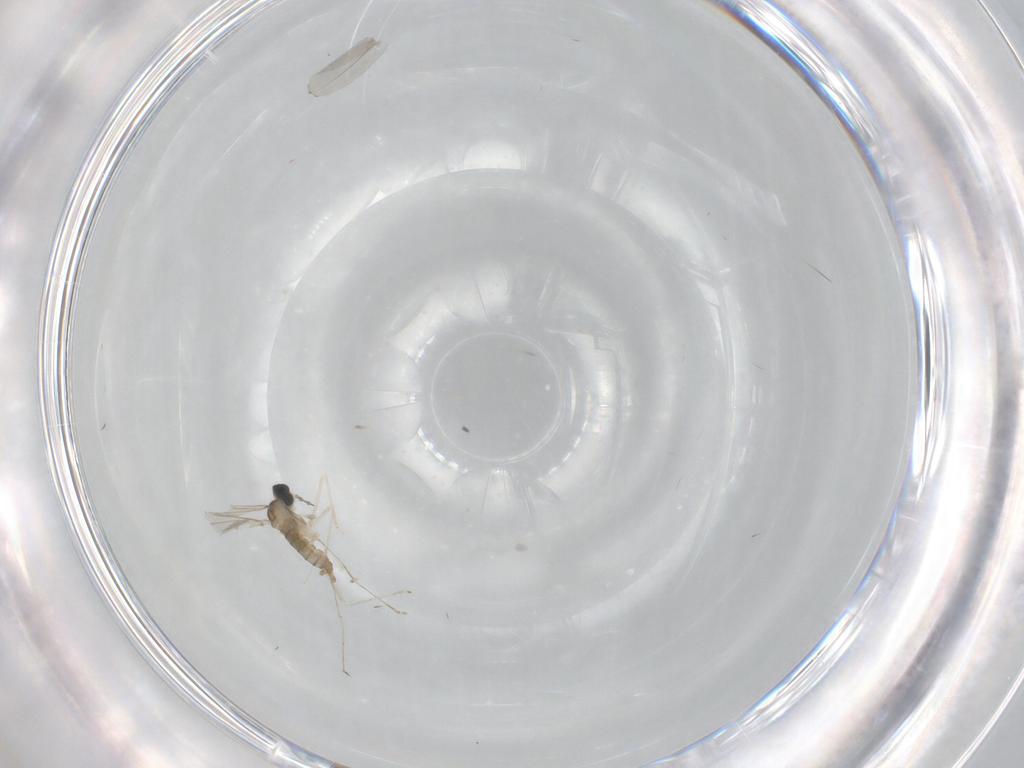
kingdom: Animalia
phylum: Arthropoda
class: Insecta
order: Diptera
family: Cecidomyiidae
